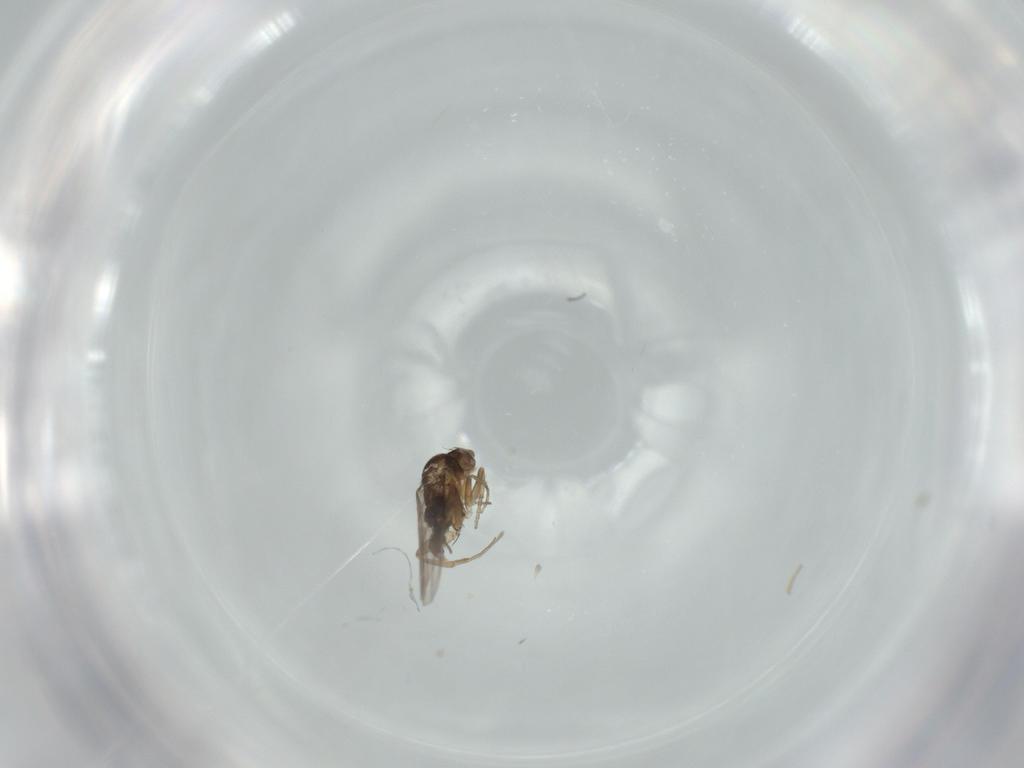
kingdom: Animalia
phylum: Arthropoda
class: Insecta
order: Diptera
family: Phoridae
